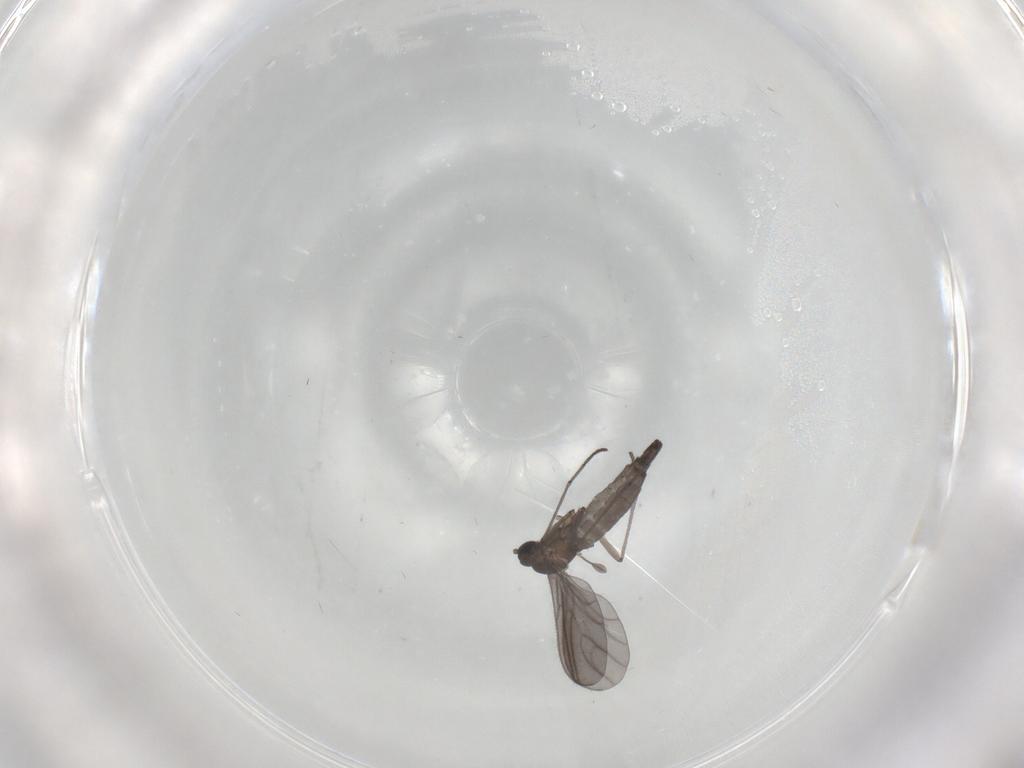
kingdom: Animalia
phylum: Arthropoda
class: Insecta
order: Diptera
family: Sciaridae
